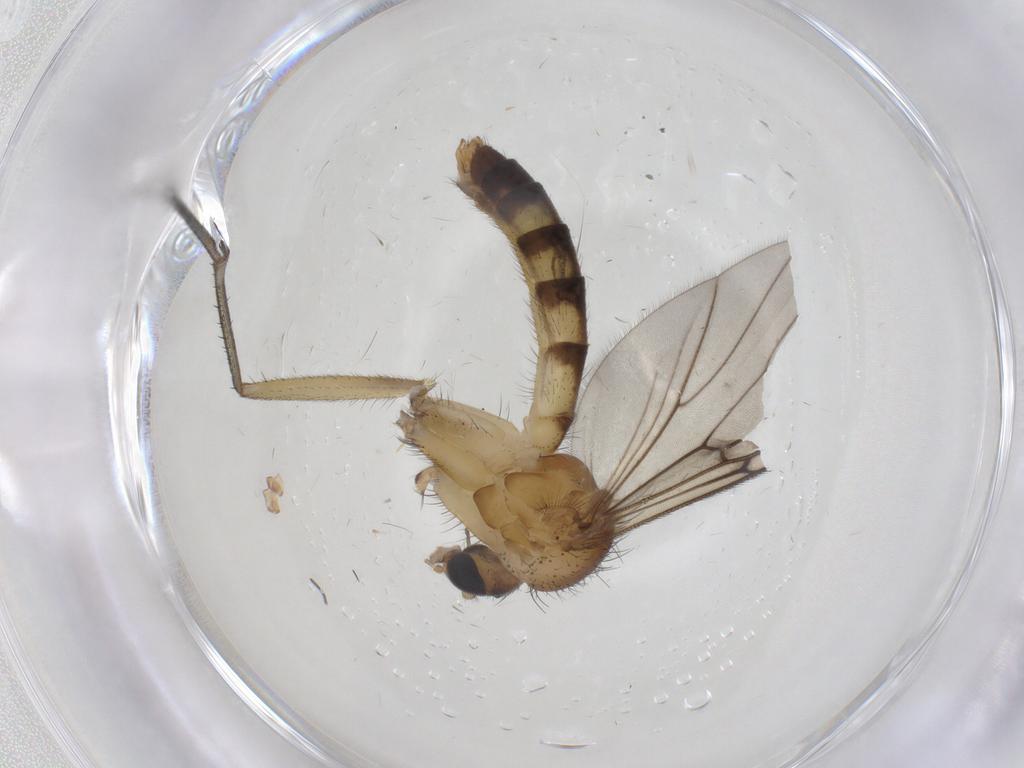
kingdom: Animalia
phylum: Arthropoda
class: Insecta
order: Diptera
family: Mycetophilidae
